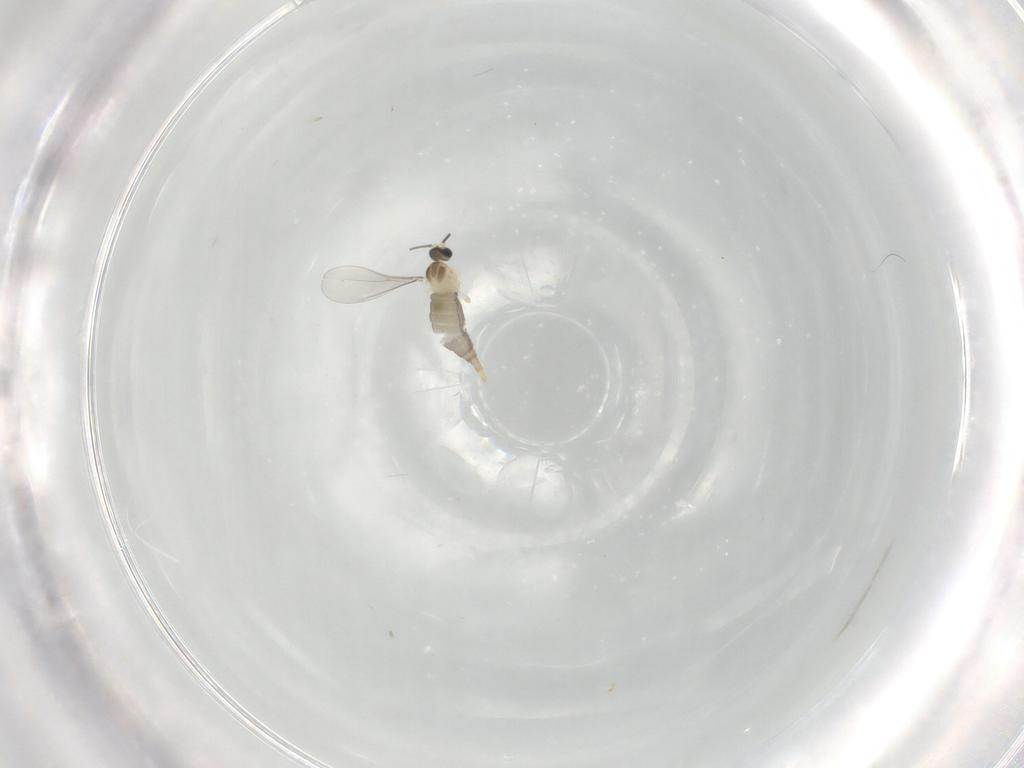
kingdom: Animalia
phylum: Arthropoda
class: Insecta
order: Diptera
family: Cecidomyiidae
